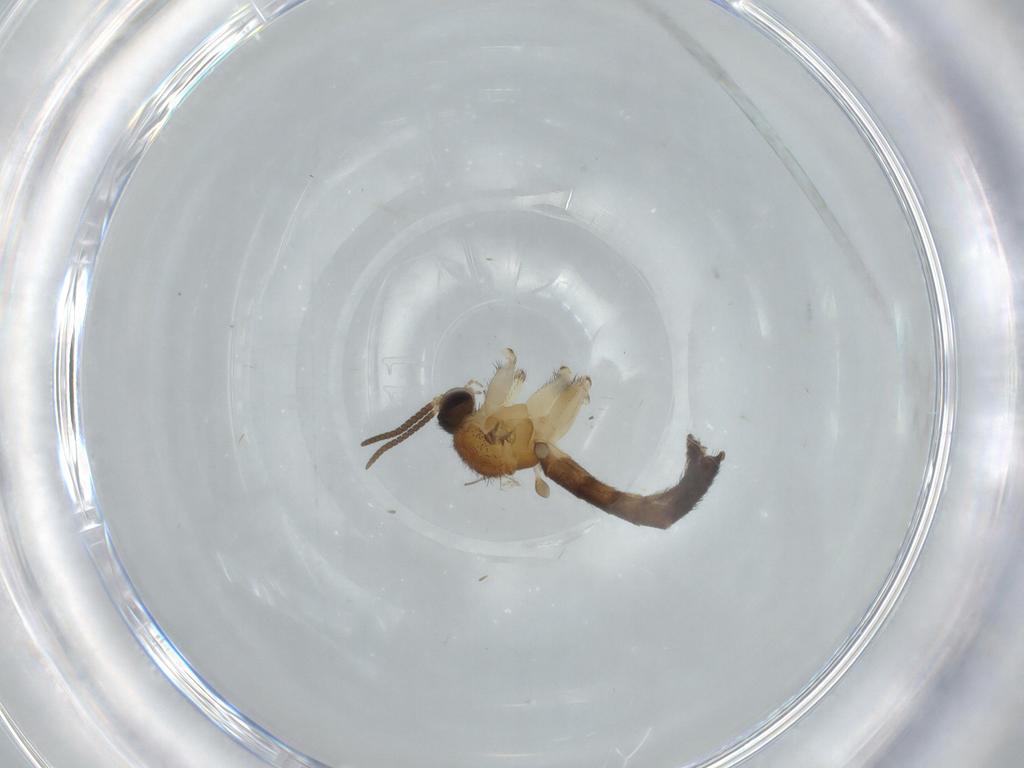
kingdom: Animalia
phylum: Arthropoda
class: Insecta
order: Diptera
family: Keroplatidae
